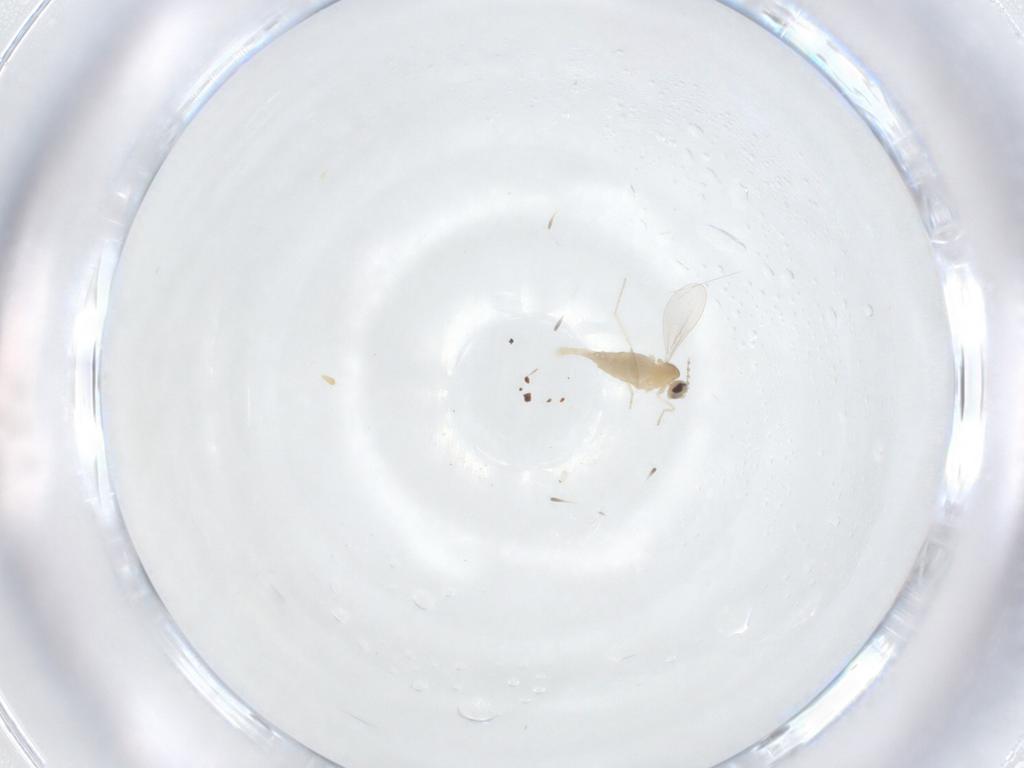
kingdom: Animalia
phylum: Arthropoda
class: Insecta
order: Diptera
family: Cecidomyiidae
